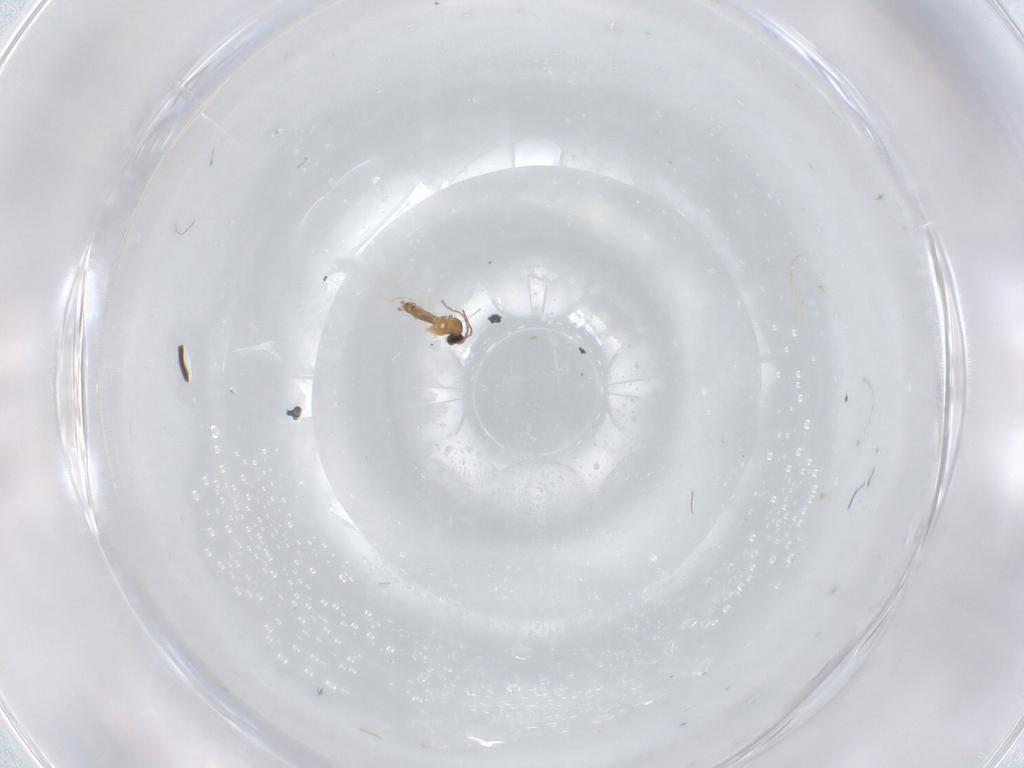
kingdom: Animalia
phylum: Arthropoda
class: Insecta
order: Diptera
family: Cecidomyiidae
